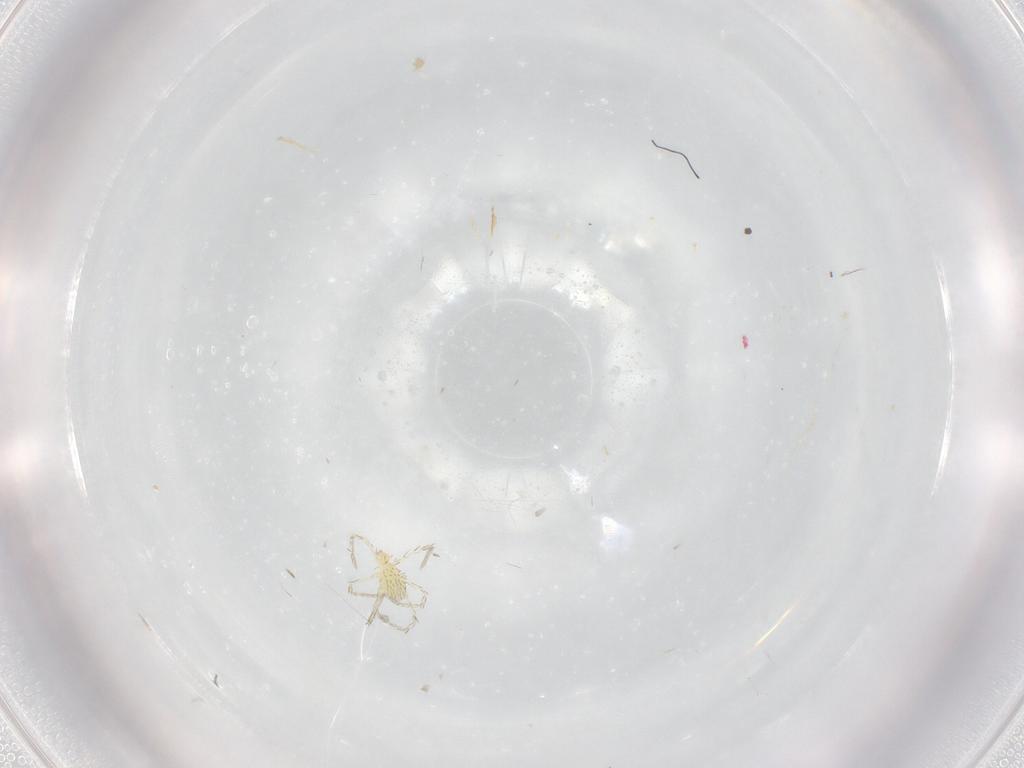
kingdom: Animalia
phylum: Arthropoda
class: Arachnida
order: Trombidiformes
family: Erythraeidae
